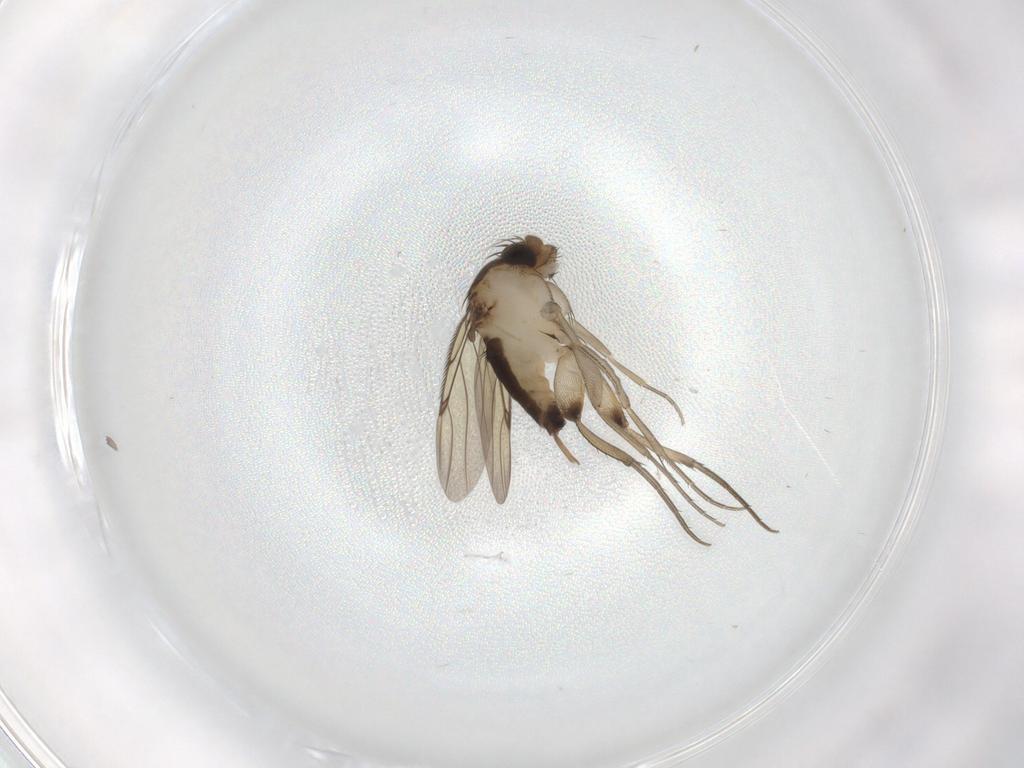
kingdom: Animalia
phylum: Arthropoda
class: Insecta
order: Diptera
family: Phoridae
